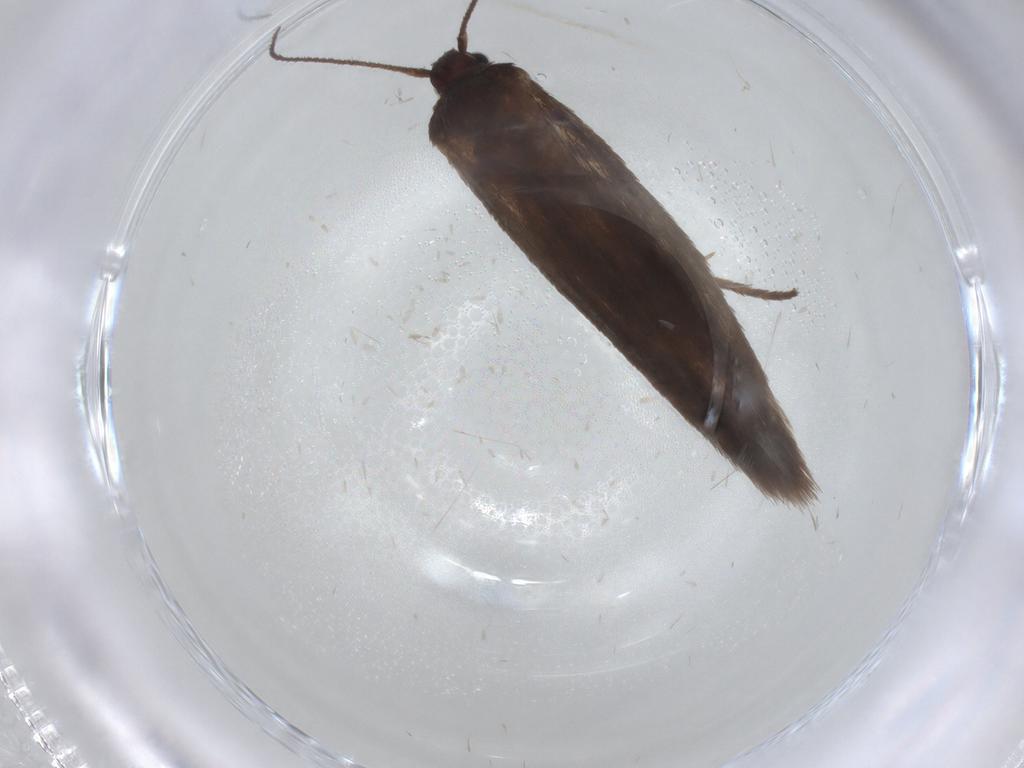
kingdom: Animalia
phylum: Arthropoda
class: Insecta
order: Lepidoptera
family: Limacodidae
